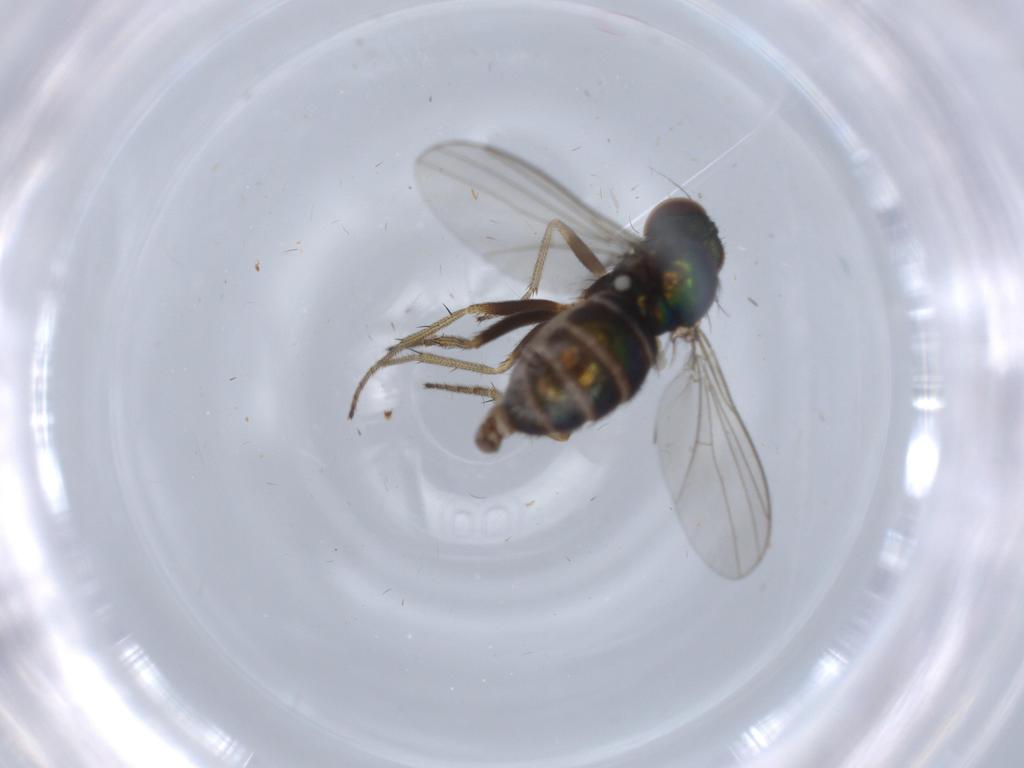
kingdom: Animalia
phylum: Arthropoda
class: Insecta
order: Diptera
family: Dolichopodidae
